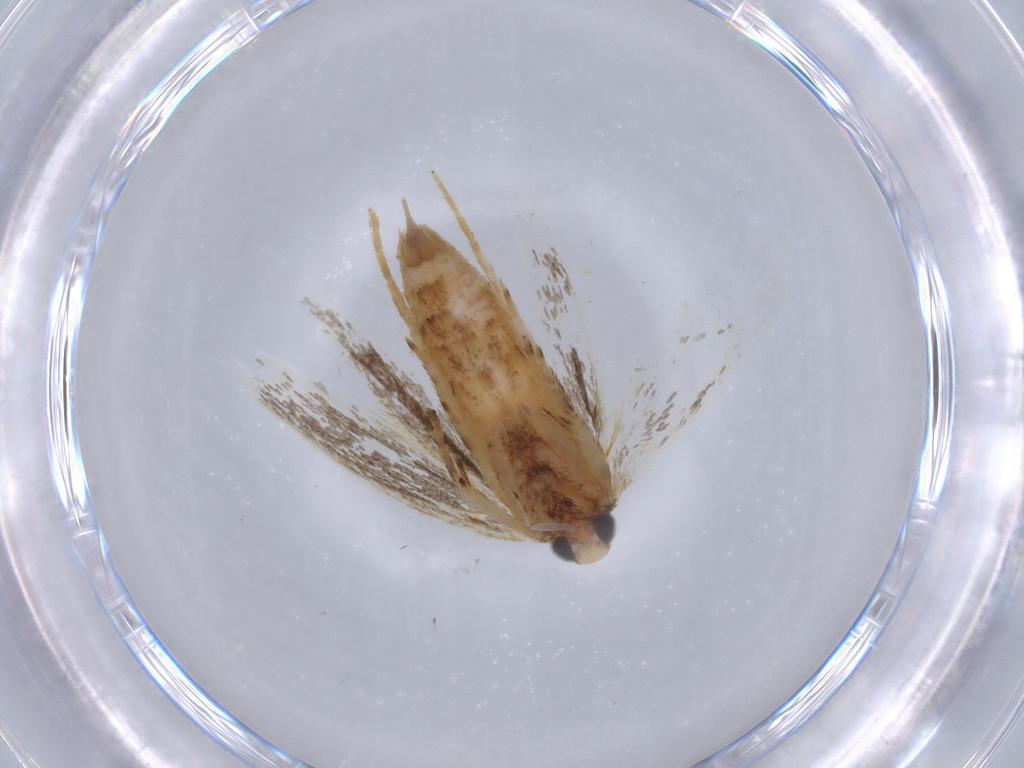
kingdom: Animalia
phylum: Arthropoda
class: Insecta
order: Lepidoptera
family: Gelechiidae
